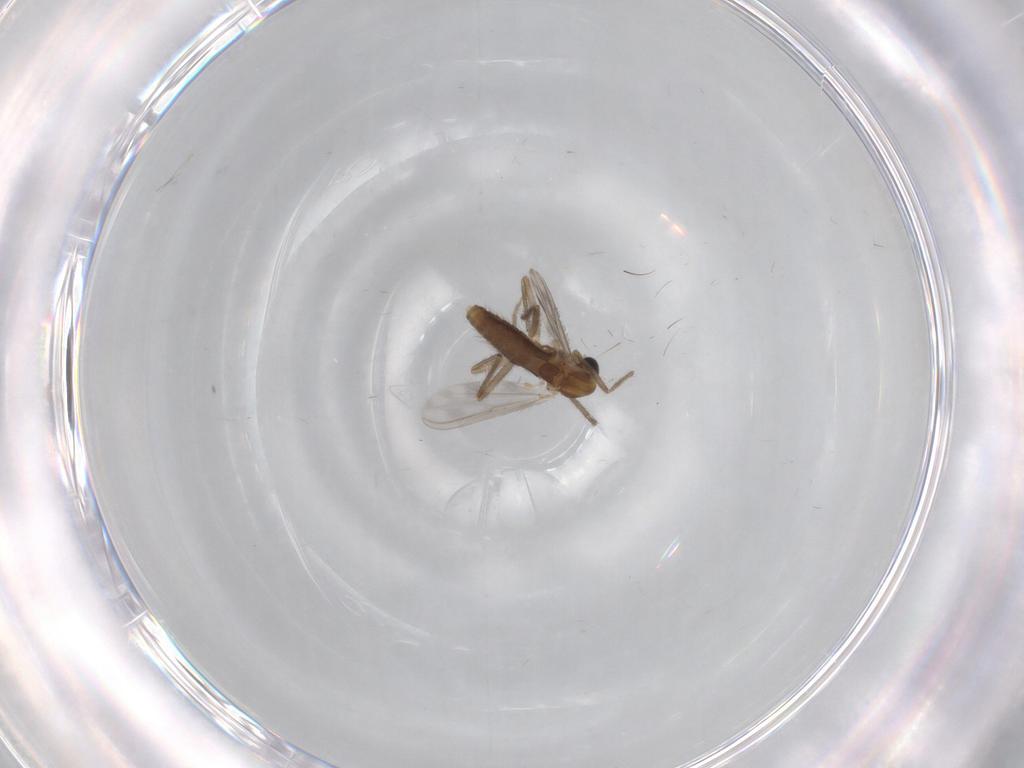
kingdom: Animalia
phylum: Arthropoda
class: Insecta
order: Diptera
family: Chironomidae
